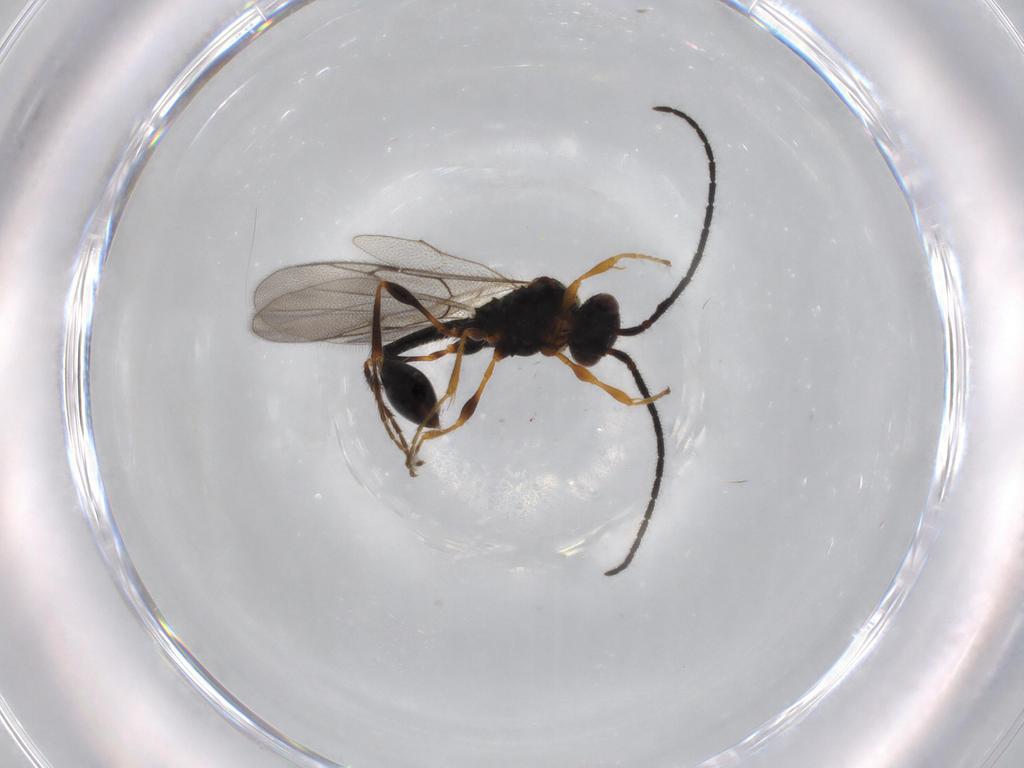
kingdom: Animalia
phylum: Arthropoda
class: Insecta
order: Hymenoptera
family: Diapriidae
